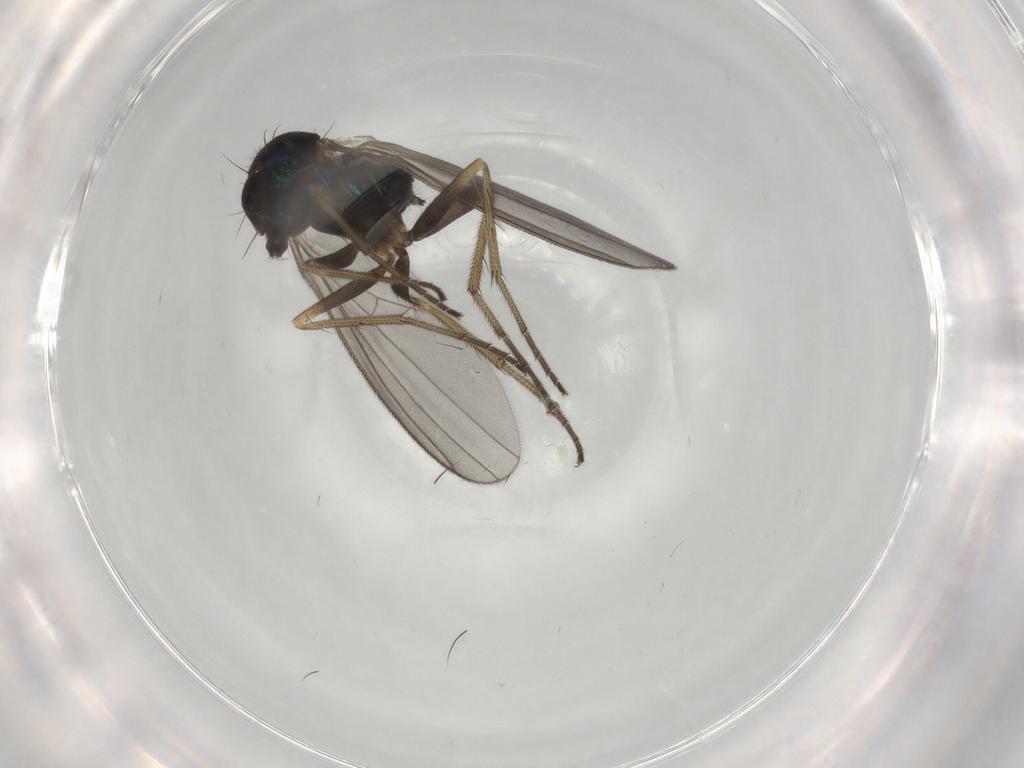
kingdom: Animalia
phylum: Arthropoda
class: Insecta
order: Diptera
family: Dolichopodidae
